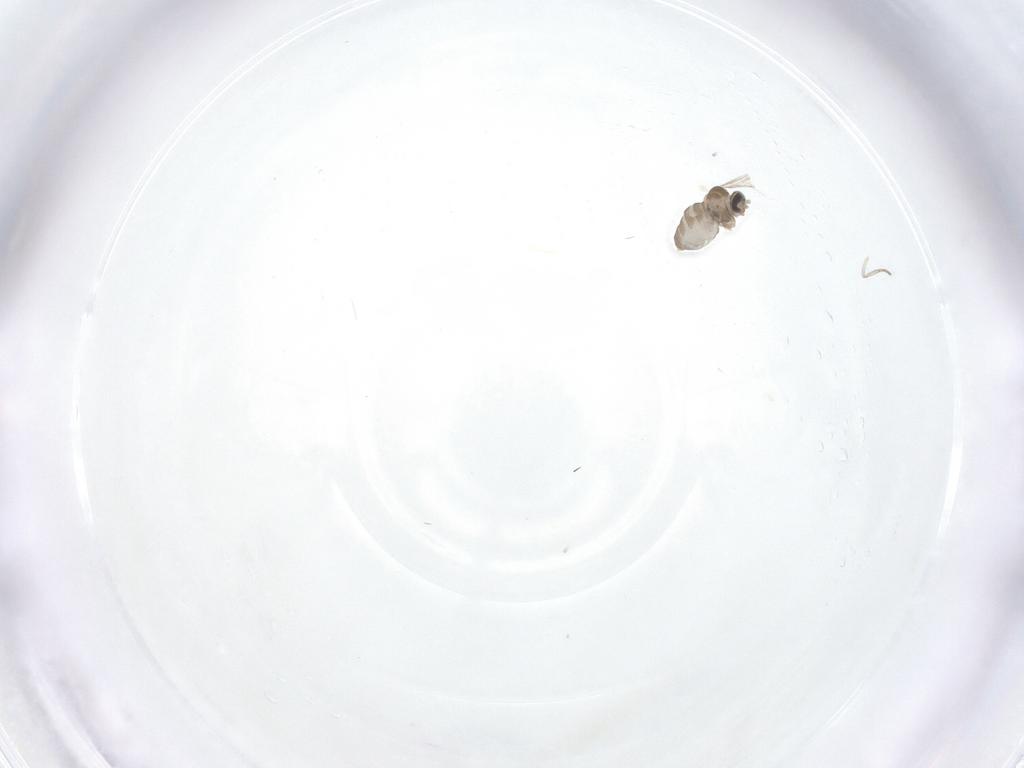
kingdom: Animalia
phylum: Arthropoda
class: Insecta
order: Diptera
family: Cecidomyiidae
